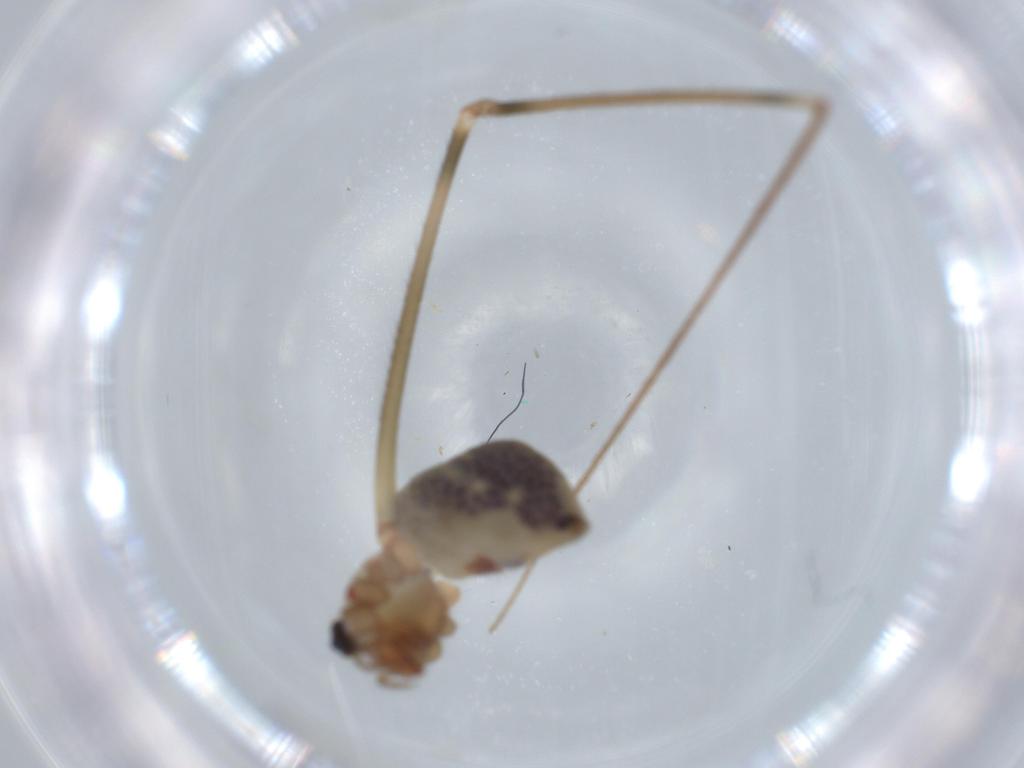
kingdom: Animalia
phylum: Arthropoda
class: Arachnida
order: Araneae
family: Pholcidae
